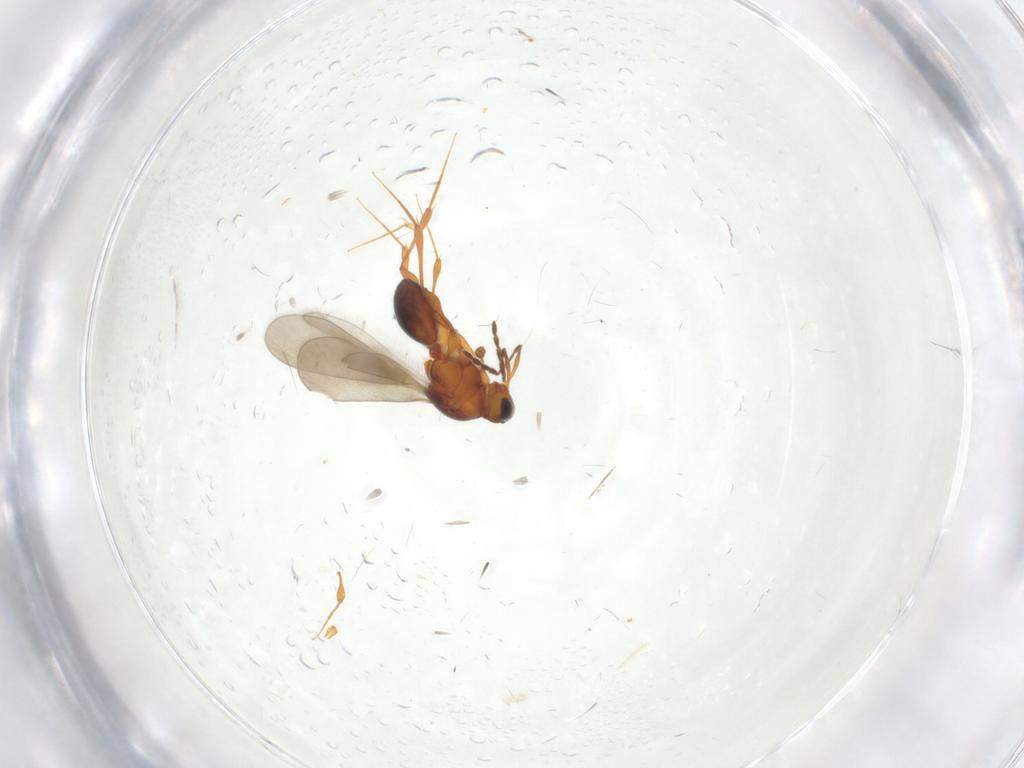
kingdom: Animalia
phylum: Arthropoda
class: Insecta
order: Hymenoptera
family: Platygastridae
